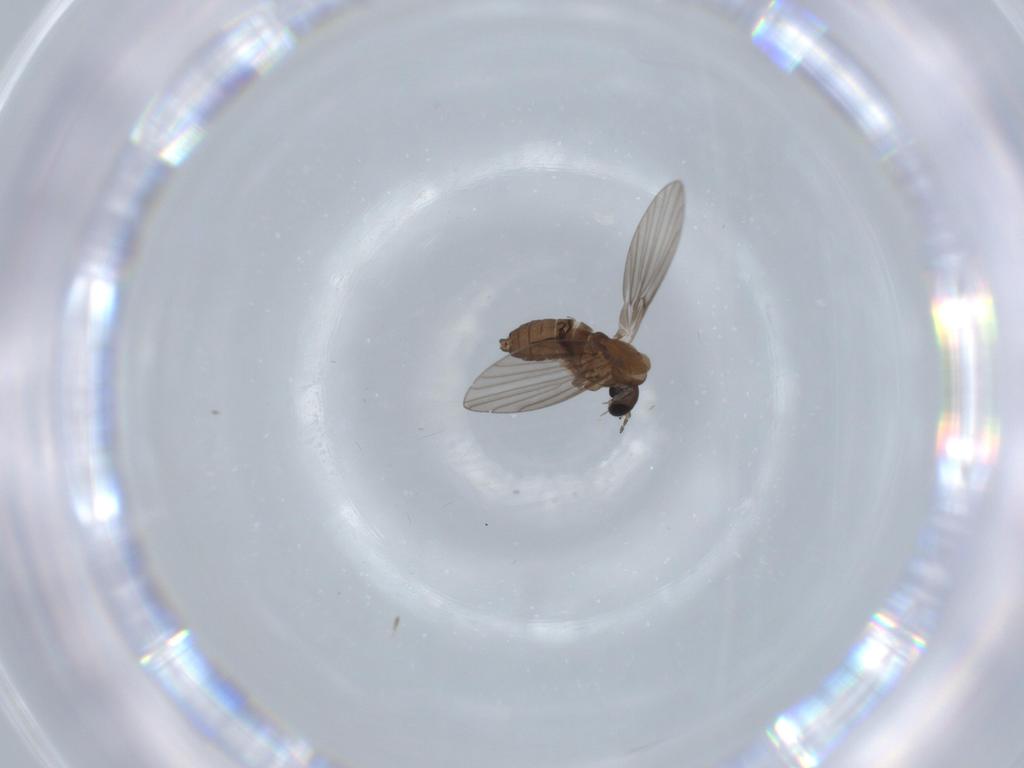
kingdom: Animalia
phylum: Arthropoda
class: Insecta
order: Diptera
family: Psychodidae
